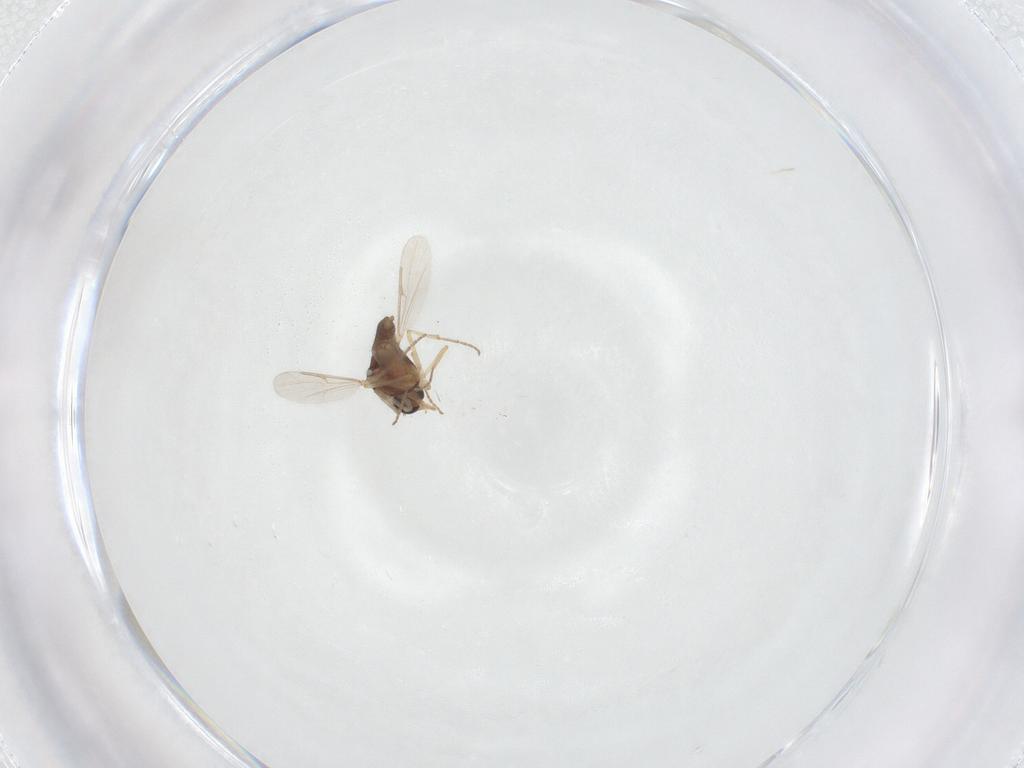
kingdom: Animalia
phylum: Arthropoda
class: Insecta
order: Diptera
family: Ceratopogonidae
